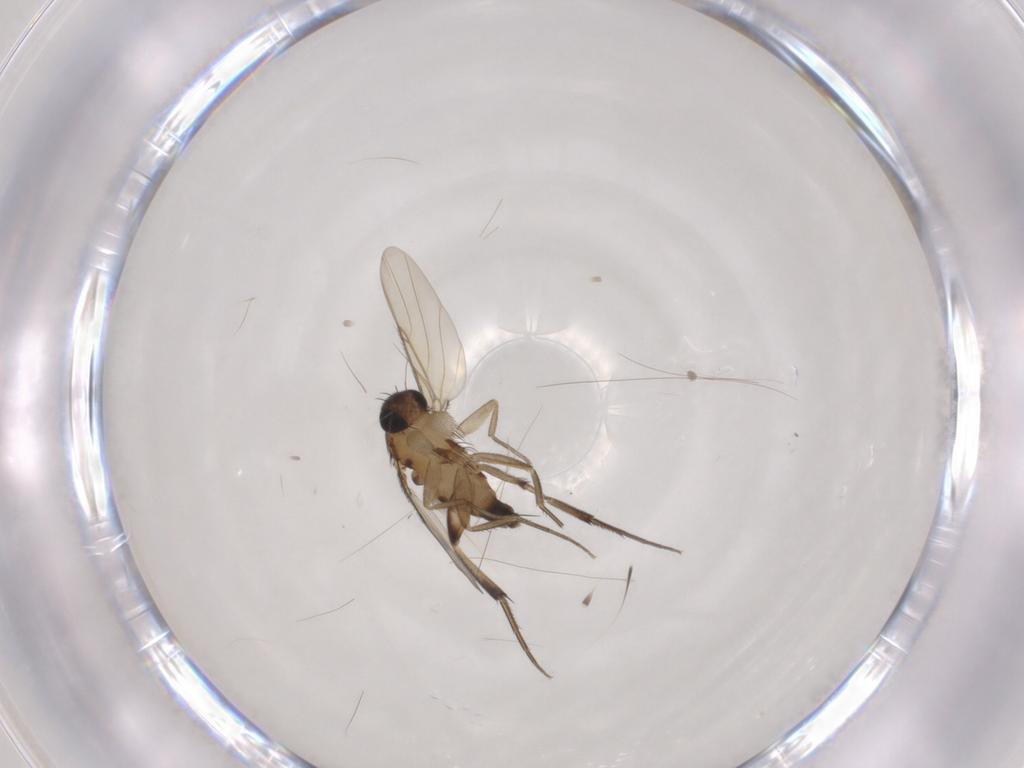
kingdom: Animalia
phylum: Arthropoda
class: Insecta
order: Diptera
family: Phoridae
